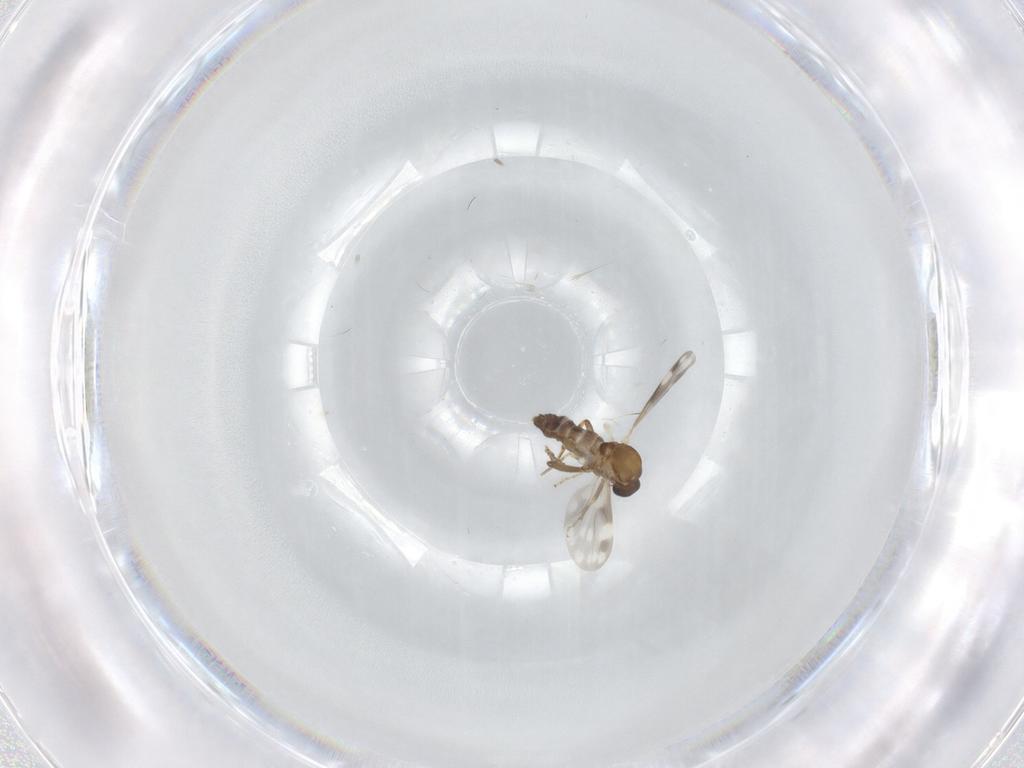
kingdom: Animalia
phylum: Arthropoda
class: Insecta
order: Diptera
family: Ceratopogonidae
